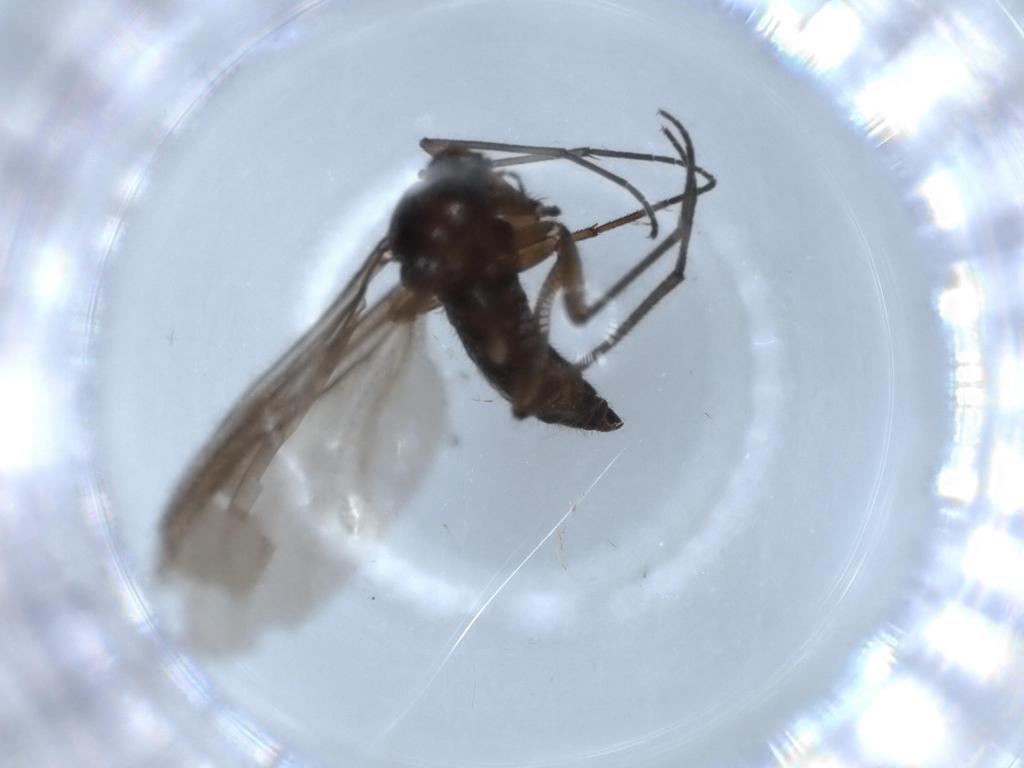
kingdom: Animalia
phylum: Arthropoda
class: Insecta
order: Diptera
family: Sciaridae
